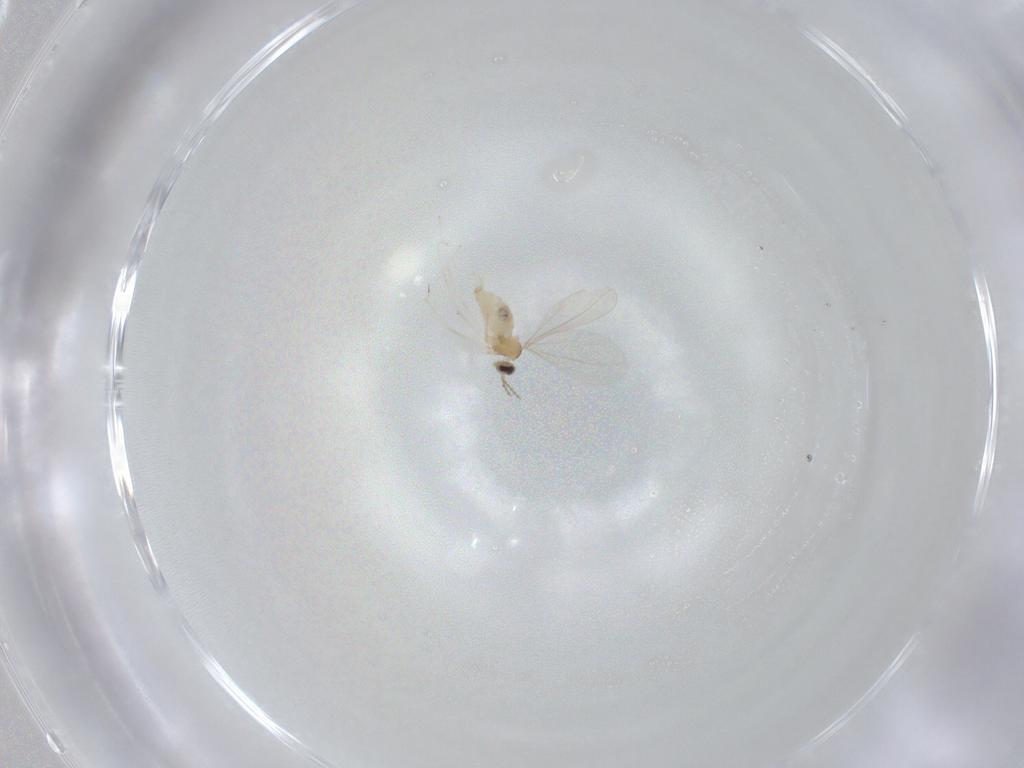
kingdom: Animalia
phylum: Arthropoda
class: Insecta
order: Diptera
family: Cecidomyiidae
